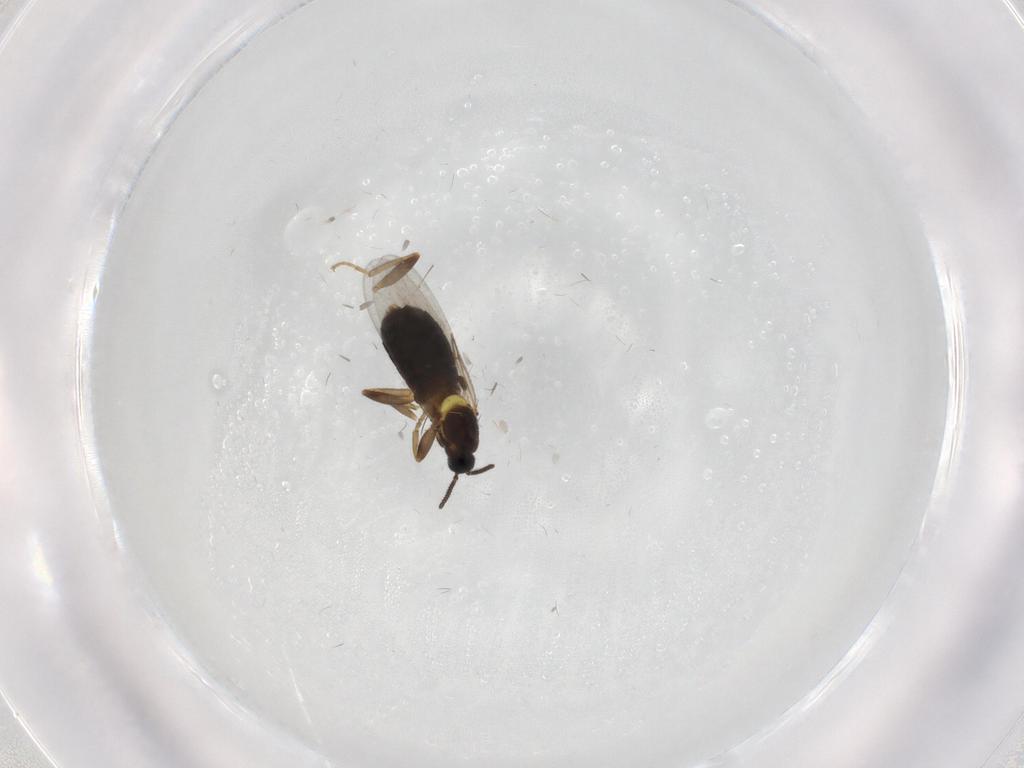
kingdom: Animalia
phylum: Arthropoda
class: Insecta
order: Diptera
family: Scatopsidae
